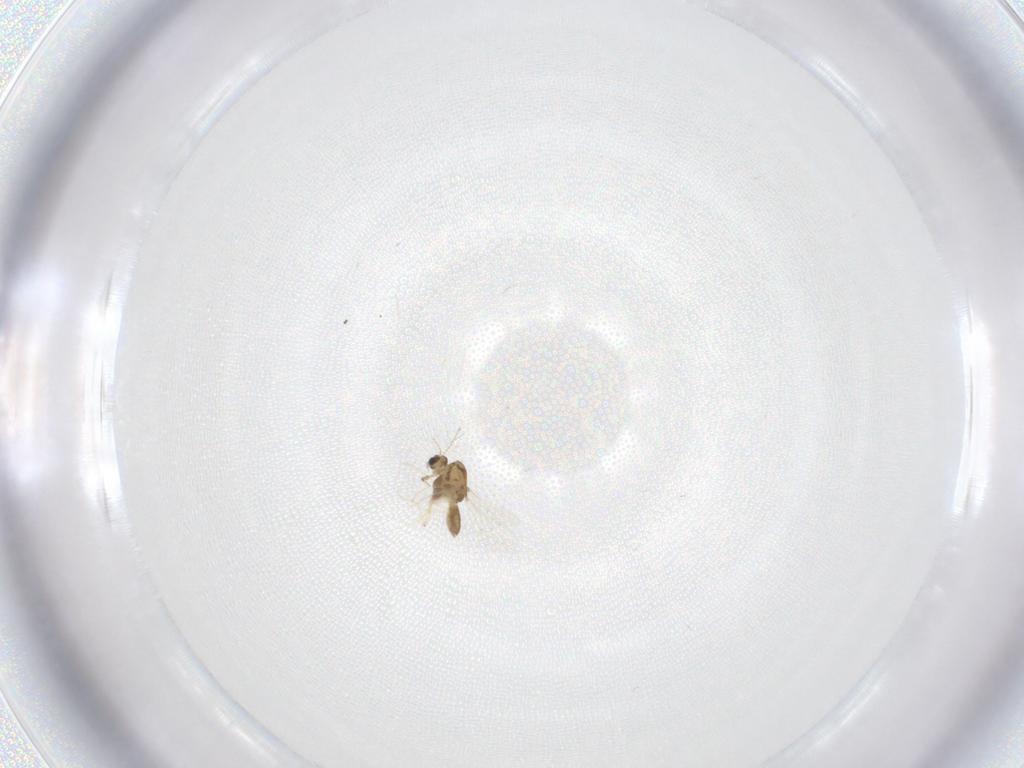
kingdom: Animalia
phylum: Arthropoda
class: Insecta
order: Diptera
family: Chironomidae
